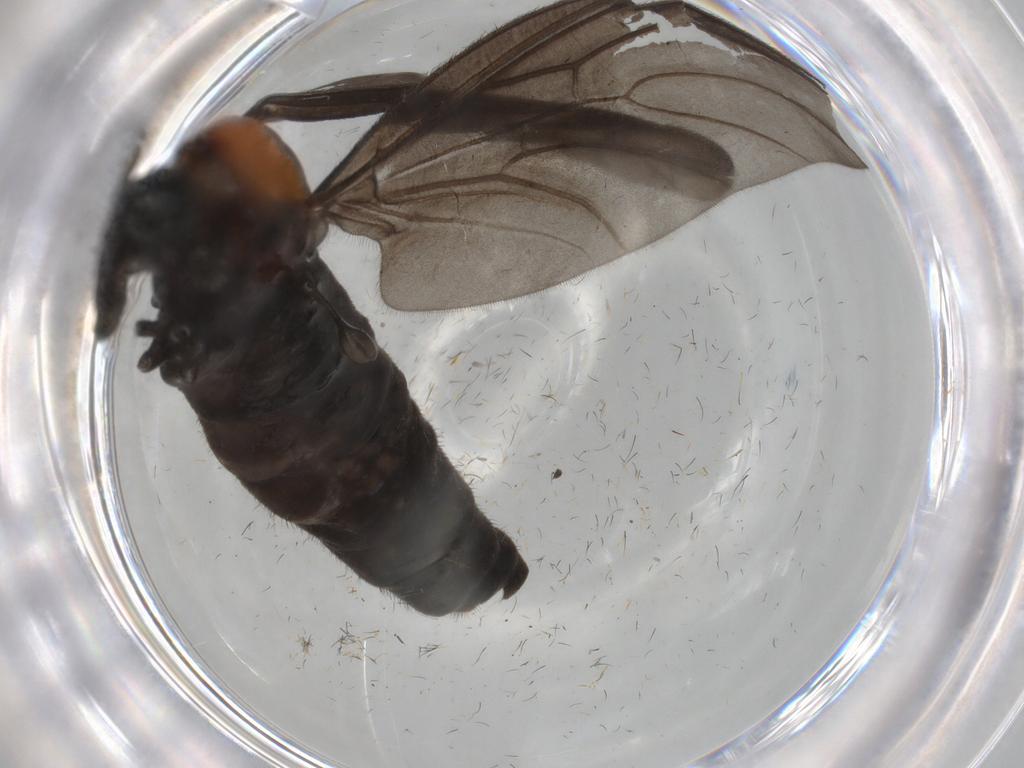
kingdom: Animalia
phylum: Arthropoda
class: Insecta
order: Diptera
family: Bibionidae
